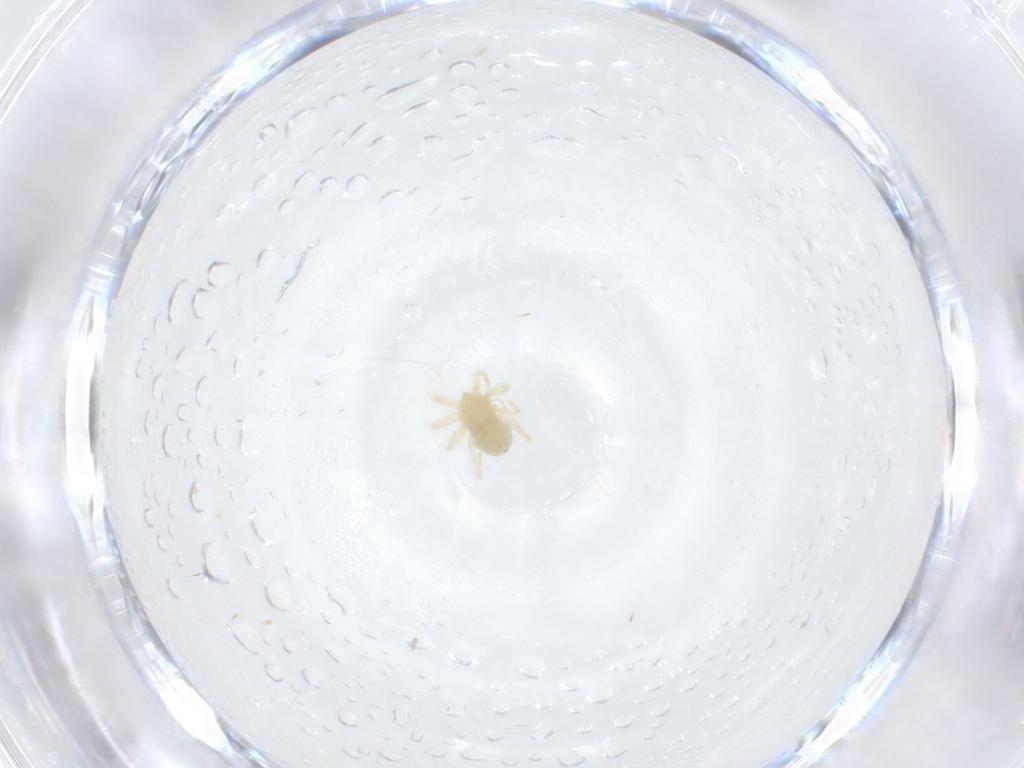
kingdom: Animalia
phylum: Arthropoda
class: Arachnida
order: Trombidiformes
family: Anystidae
